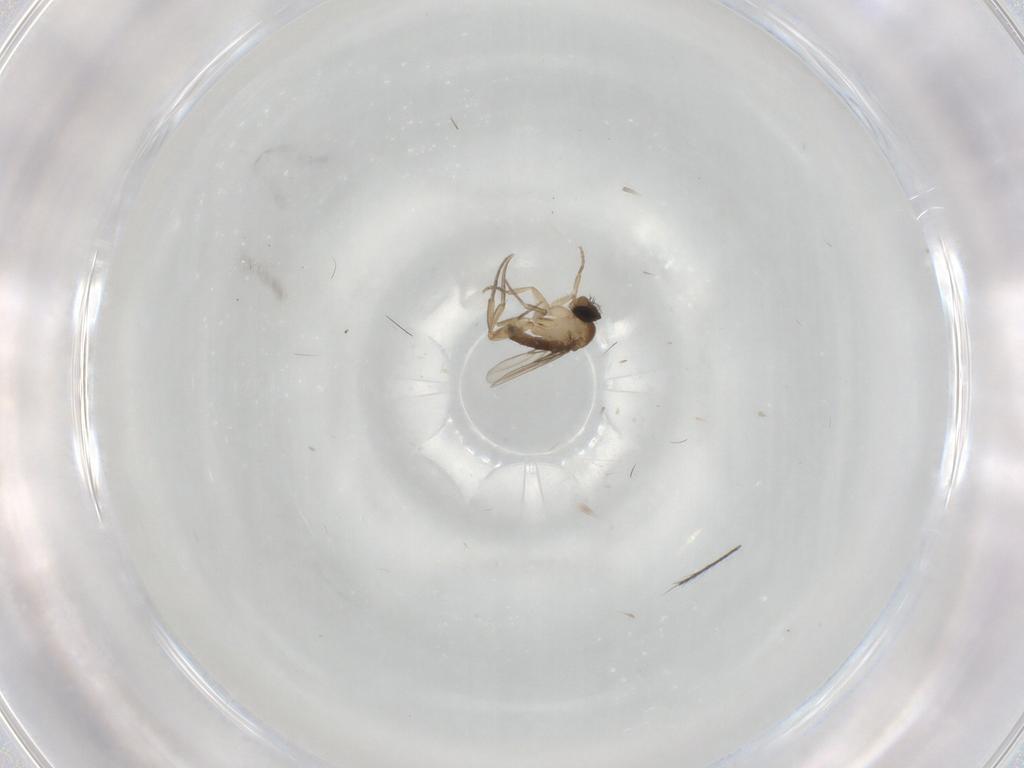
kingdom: Animalia
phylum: Arthropoda
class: Insecta
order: Diptera
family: Phoridae
